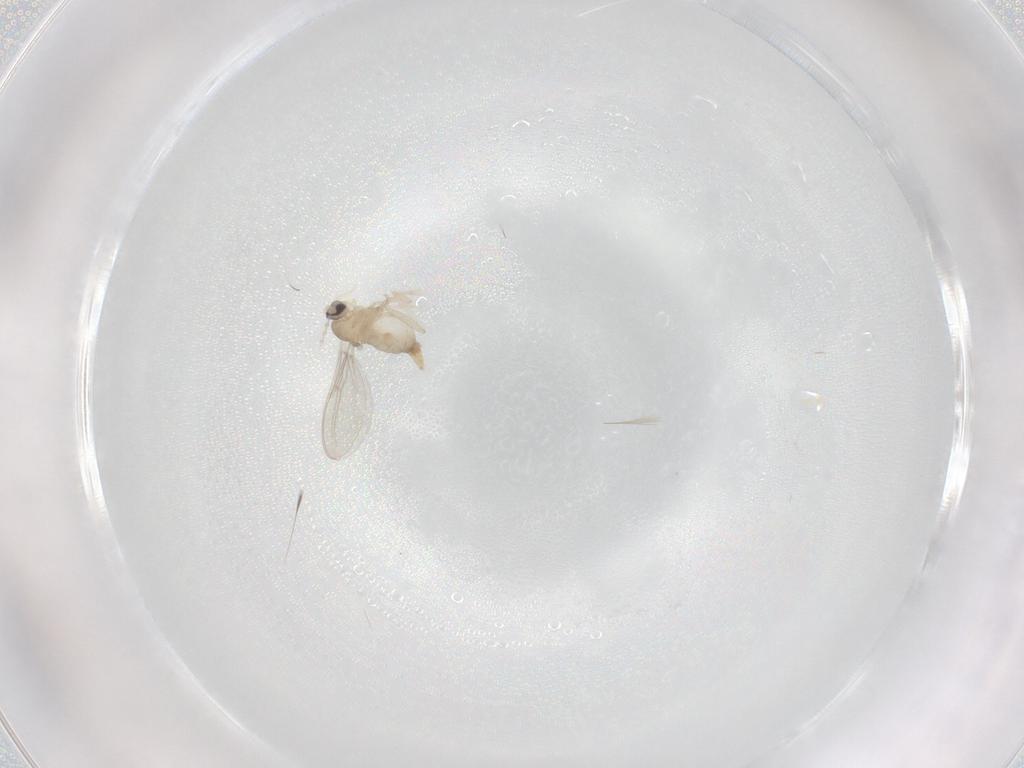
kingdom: Animalia
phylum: Arthropoda
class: Insecta
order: Diptera
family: Cecidomyiidae
